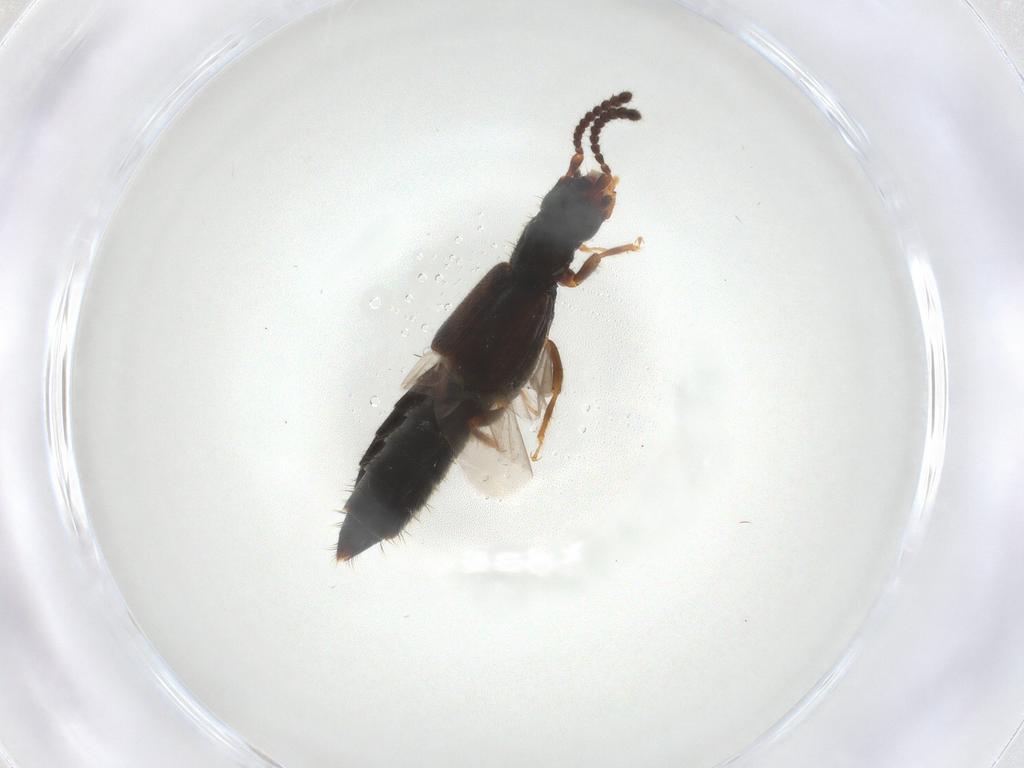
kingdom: Animalia
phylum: Arthropoda
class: Insecta
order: Coleoptera
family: Staphylinidae
